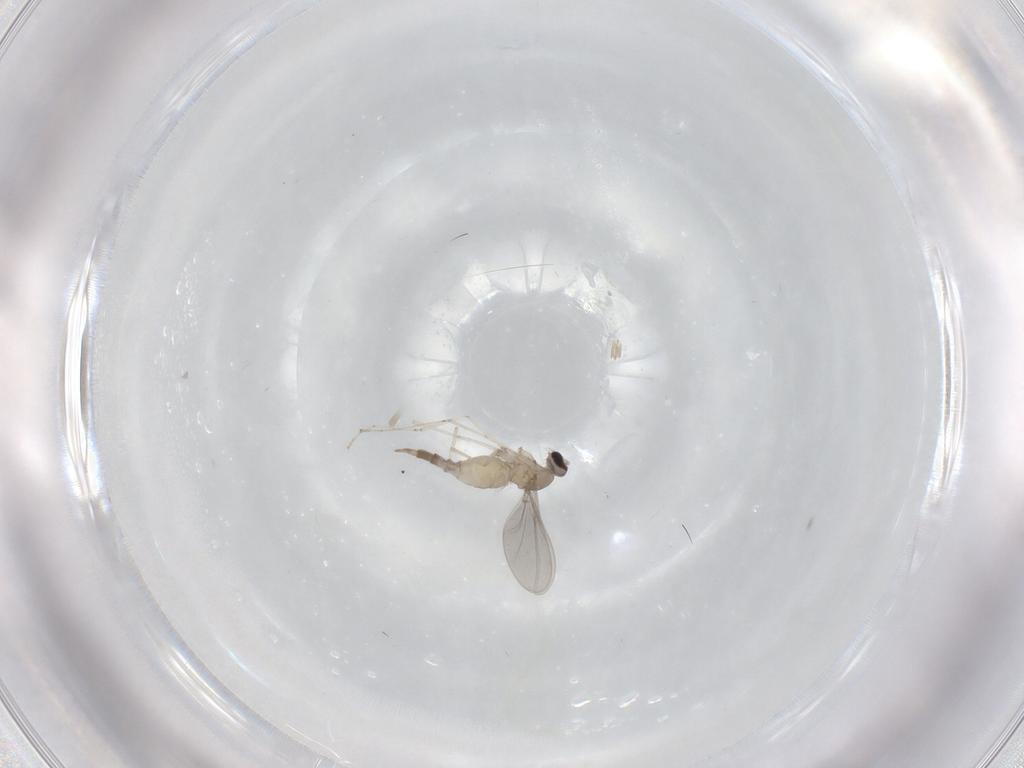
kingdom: Animalia
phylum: Arthropoda
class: Insecta
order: Diptera
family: Cecidomyiidae
